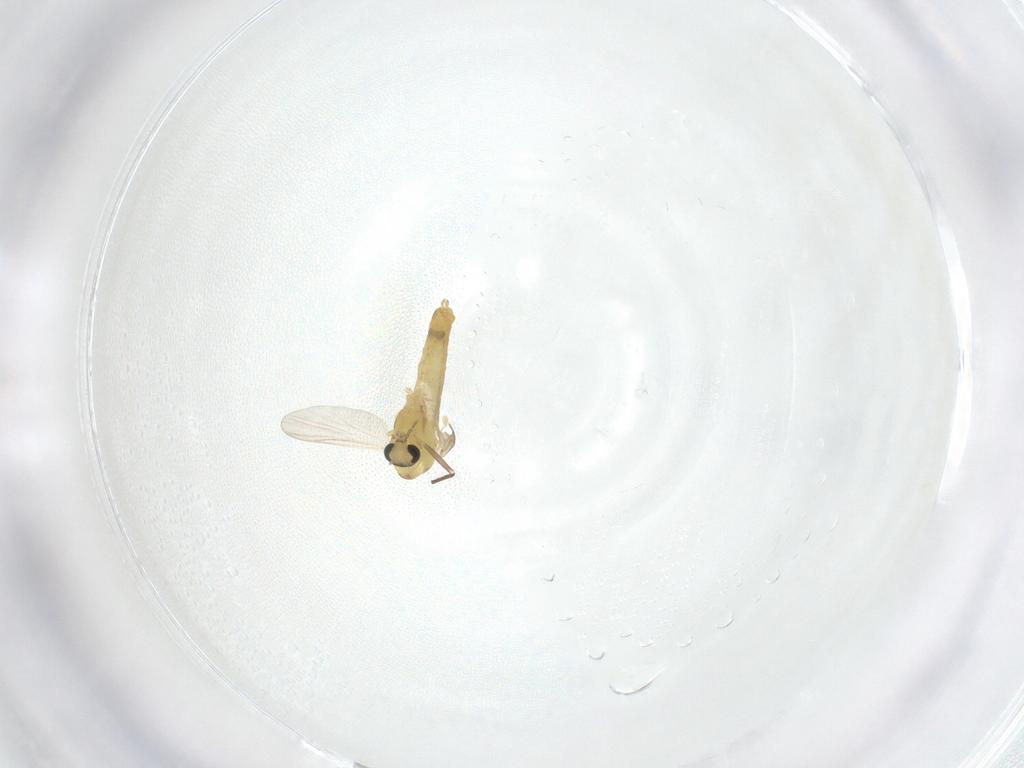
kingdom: Animalia
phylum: Arthropoda
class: Insecta
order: Diptera
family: Chironomidae
